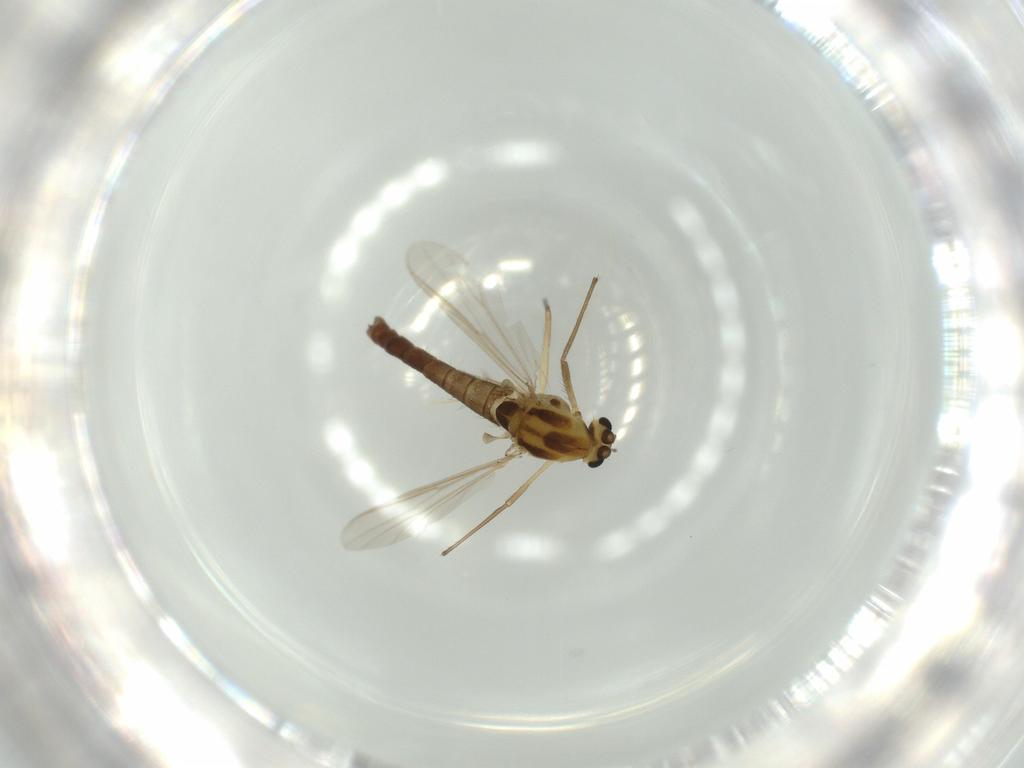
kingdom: Animalia
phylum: Arthropoda
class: Insecta
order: Diptera
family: Chironomidae
